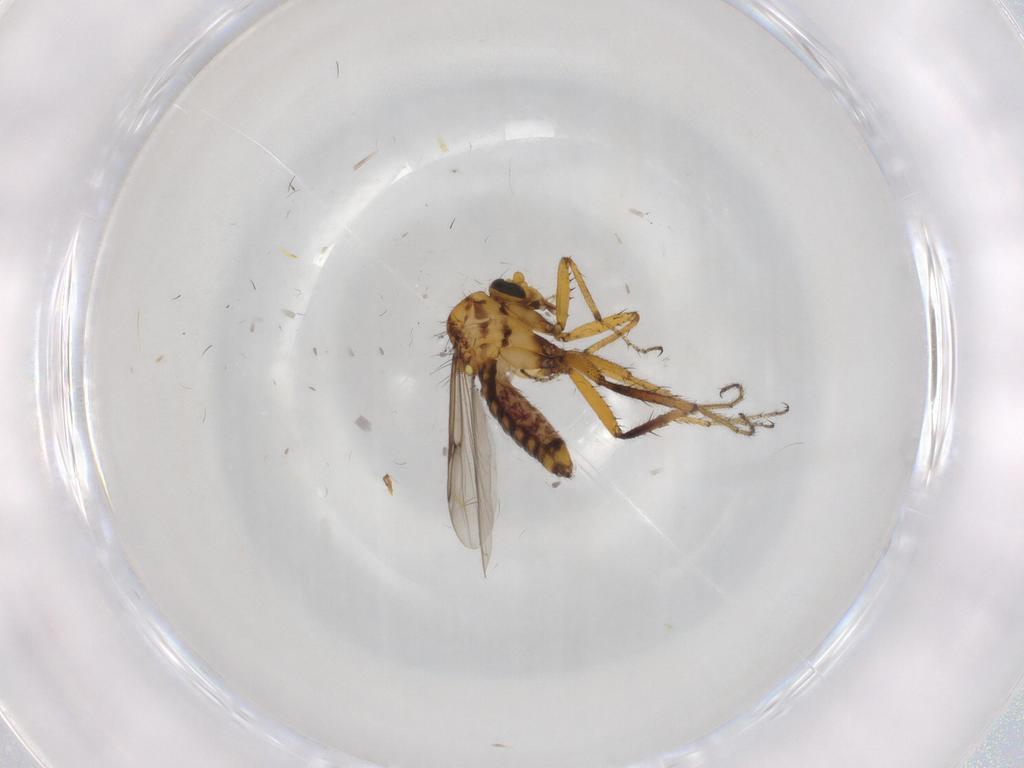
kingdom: Animalia
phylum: Arthropoda
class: Insecta
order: Diptera
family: Ceratopogonidae
